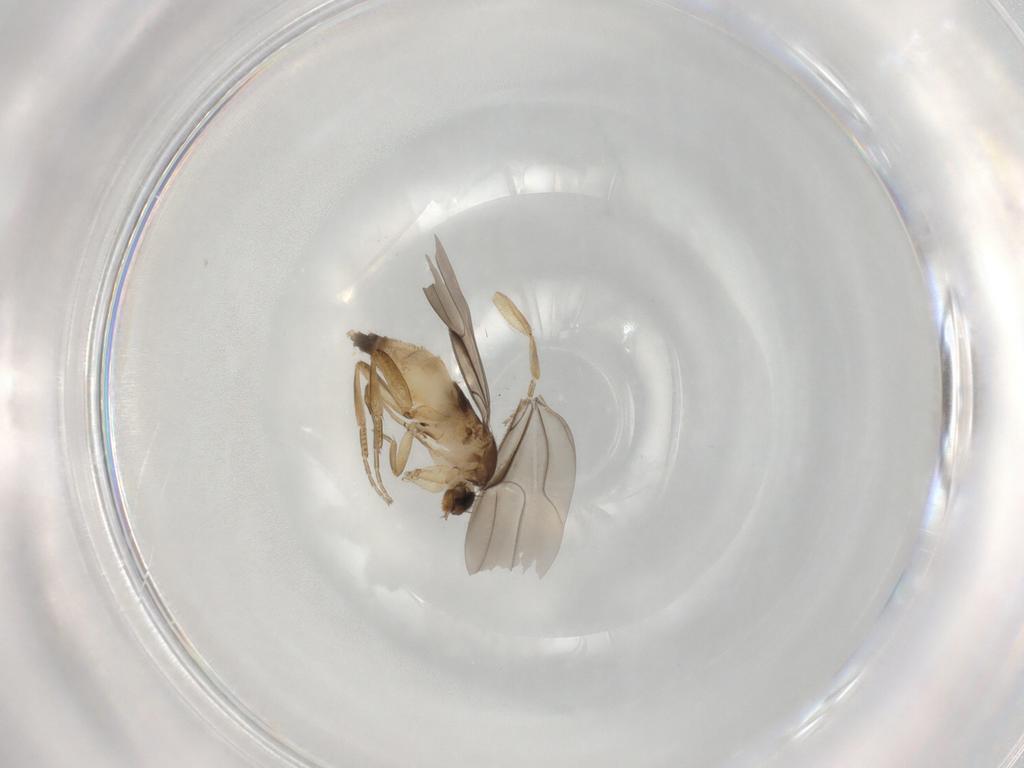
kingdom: Animalia
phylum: Arthropoda
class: Insecta
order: Diptera
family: Phoridae
